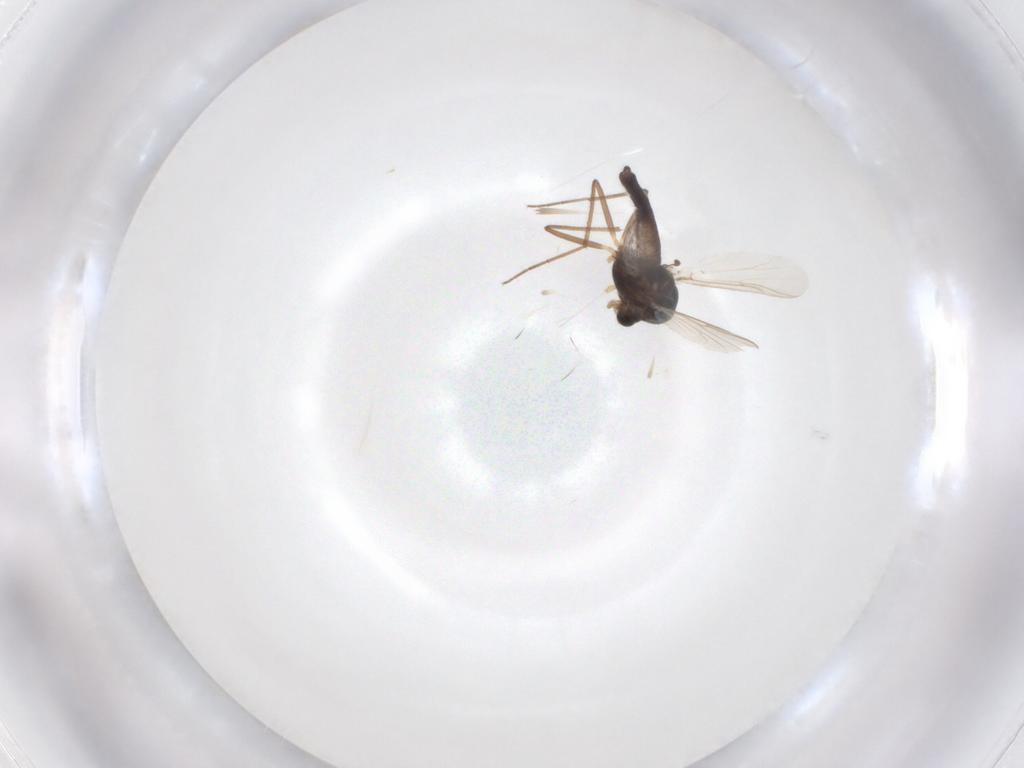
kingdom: Animalia
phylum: Arthropoda
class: Insecta
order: Diptera
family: Chironomidae
